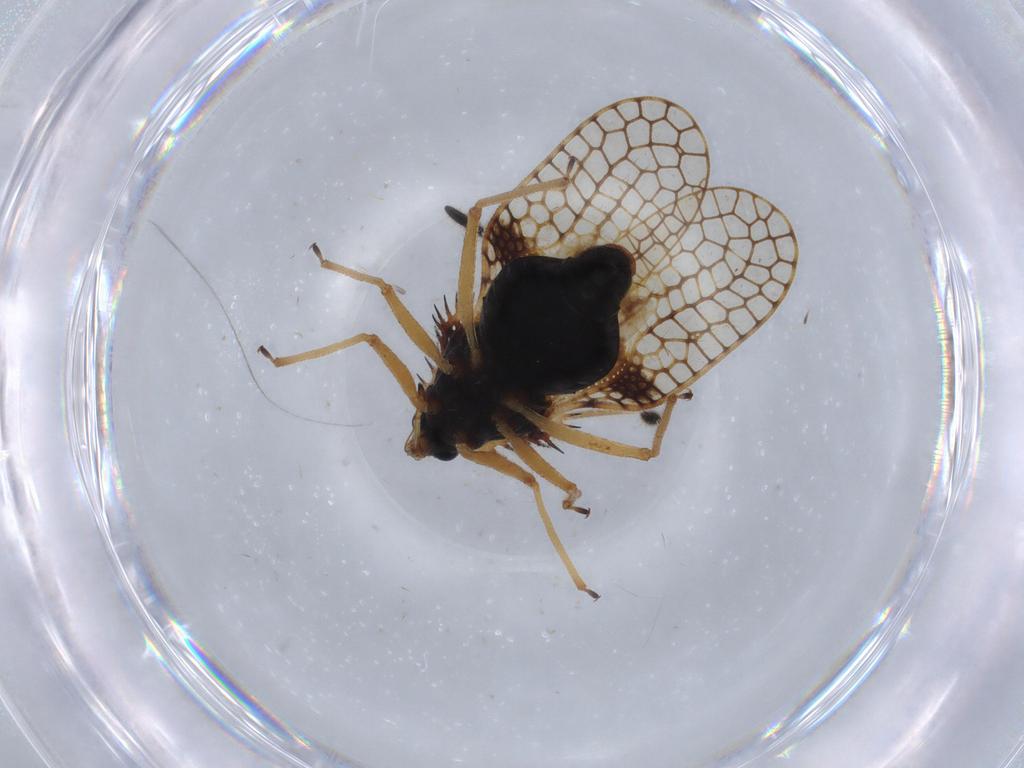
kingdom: Animalia
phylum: Arthropoda
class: Insecta
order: Hemiptera
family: Tingidae
